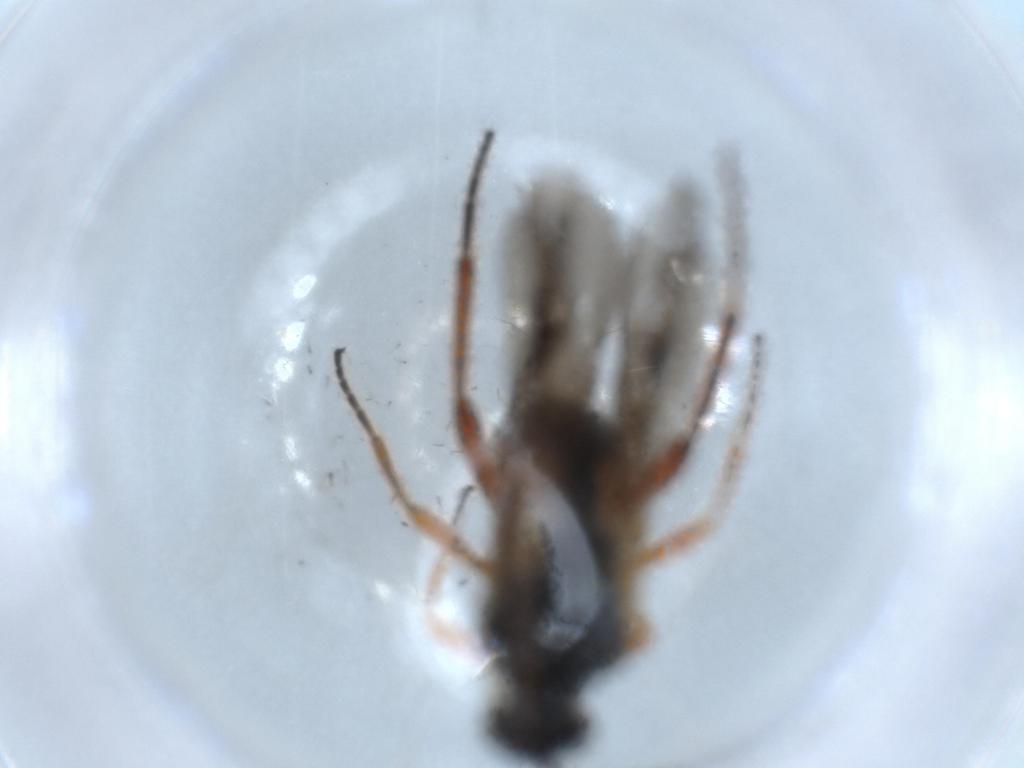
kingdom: Animalia
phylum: Arthropoda
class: Insecta
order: Hymenoptera
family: Braconidae
